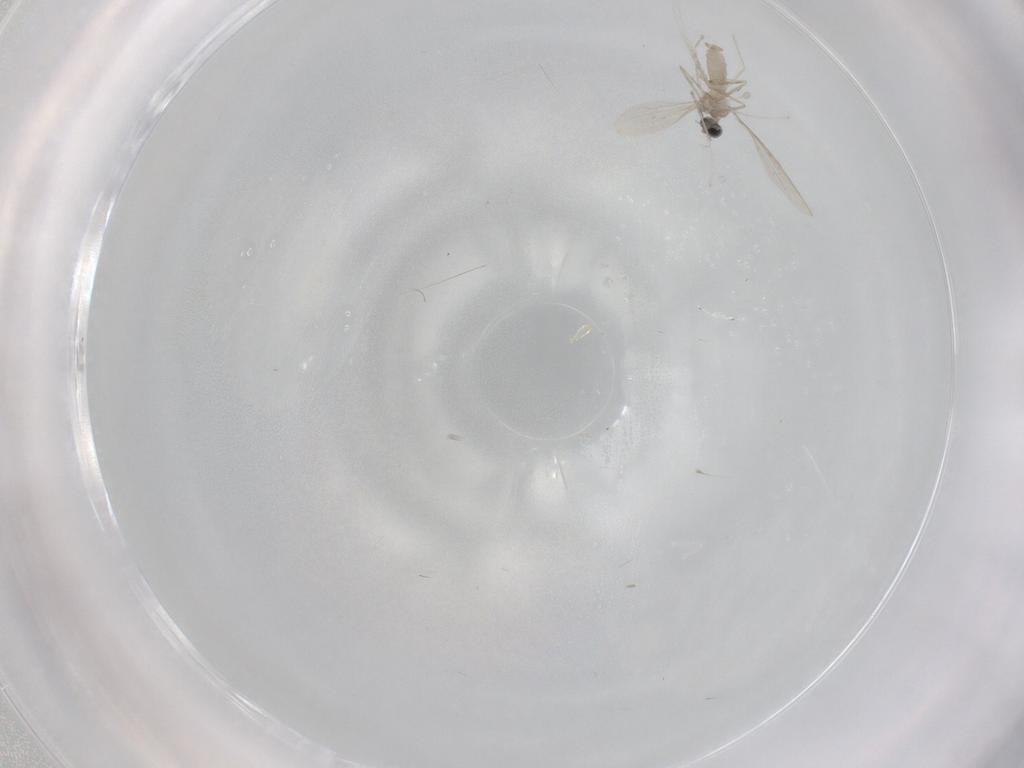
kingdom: Animalia
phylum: Arthropoda
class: Insecta
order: Diptera
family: Cecidomyiidae
